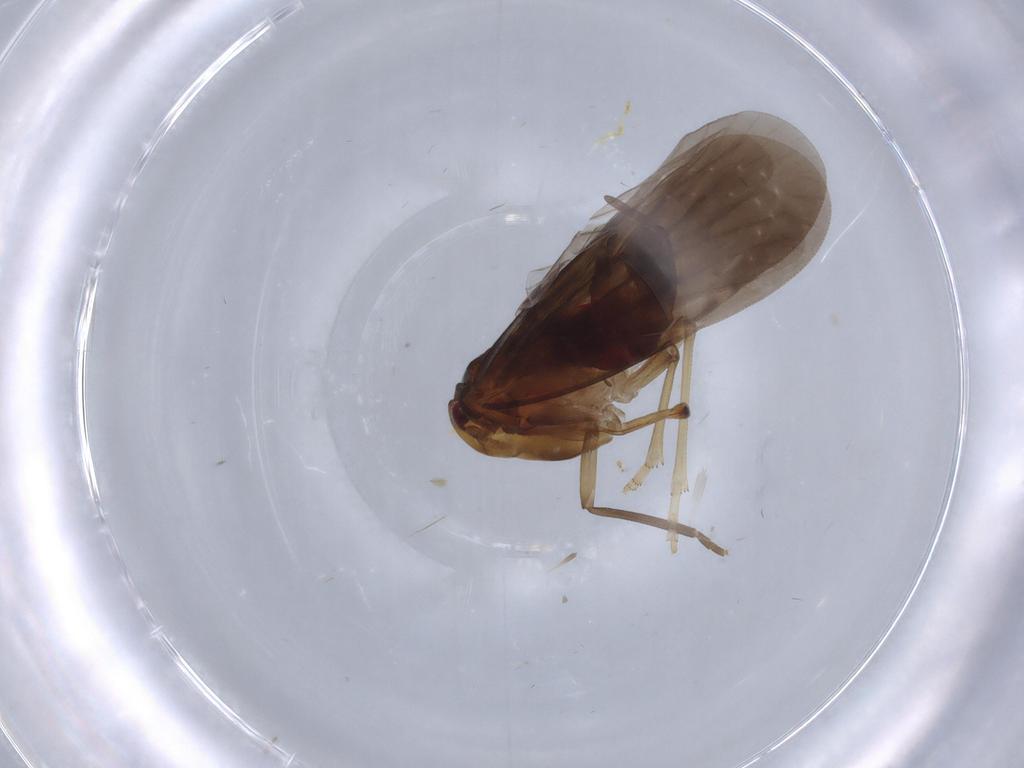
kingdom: Animalia
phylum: Arthropoda
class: Insecta
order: Hemiptera
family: Derbidae
